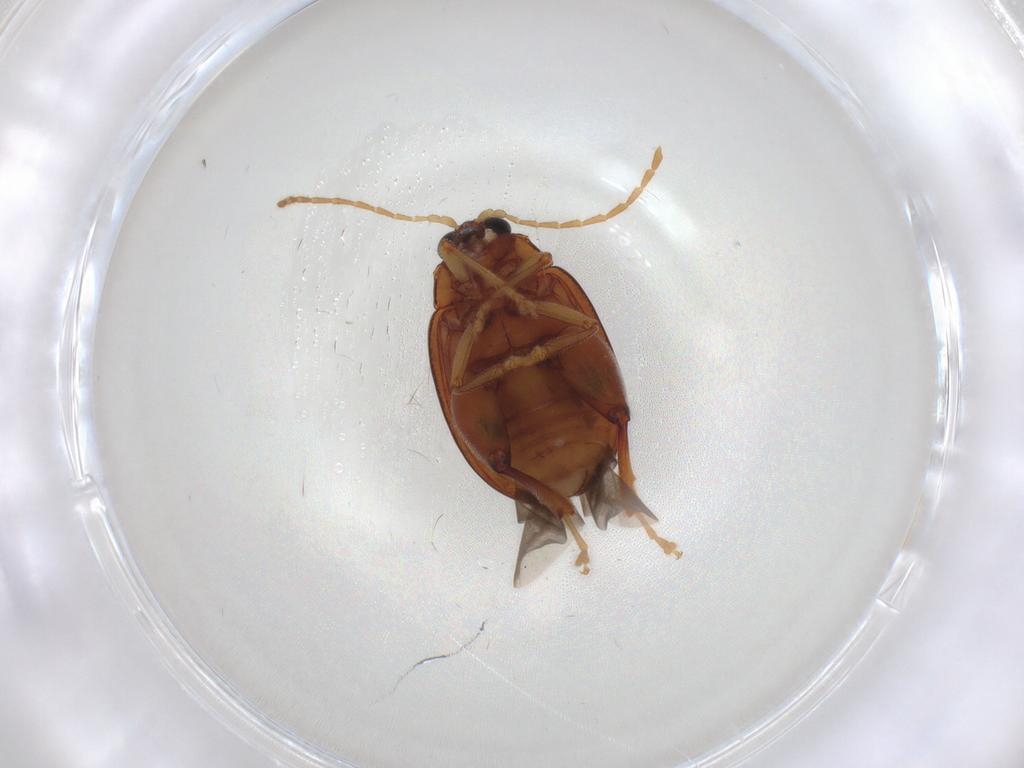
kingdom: Animalia
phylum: Arthropoda
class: Insecta
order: Coleoptera
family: Chrysomelidae
